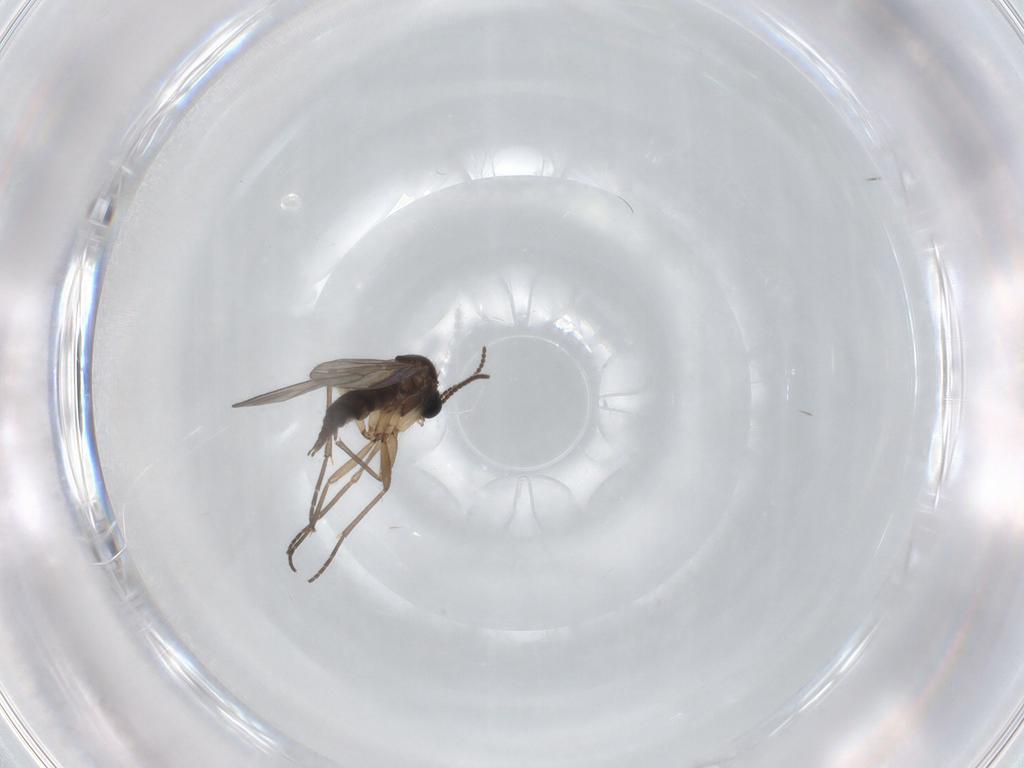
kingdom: Animalia
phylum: Arthropoda
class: Insecta
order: Diptera
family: Sciaridae
